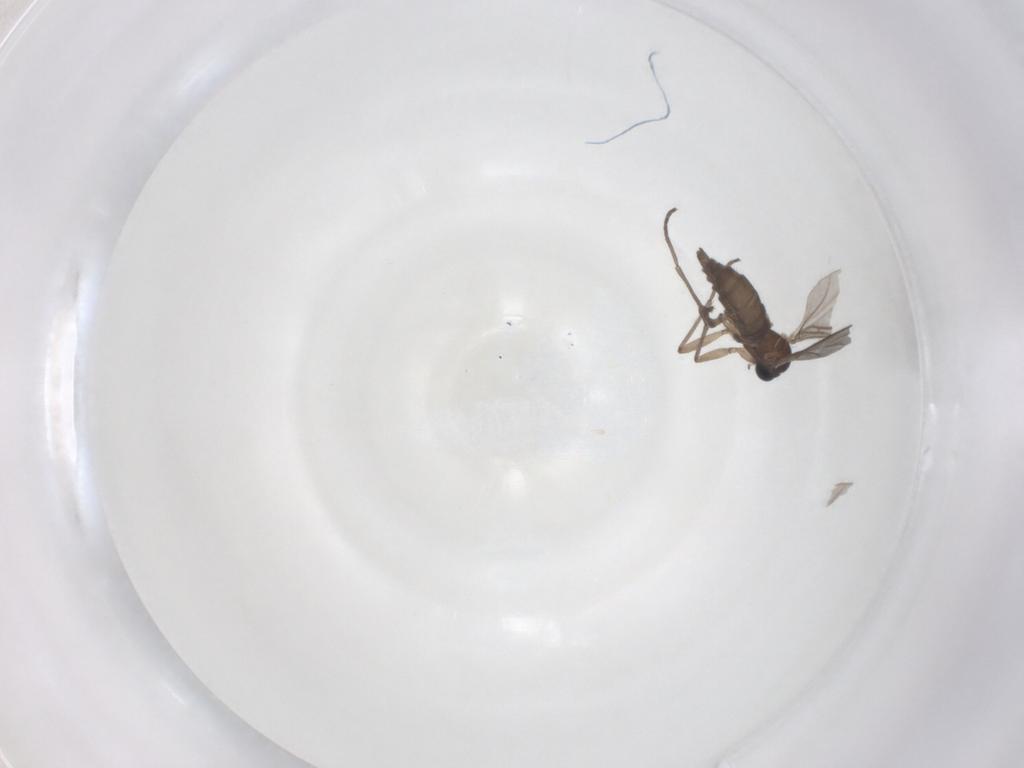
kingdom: Animalia
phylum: Arthropoda
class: Insecta
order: Diptera
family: Sciaridae
